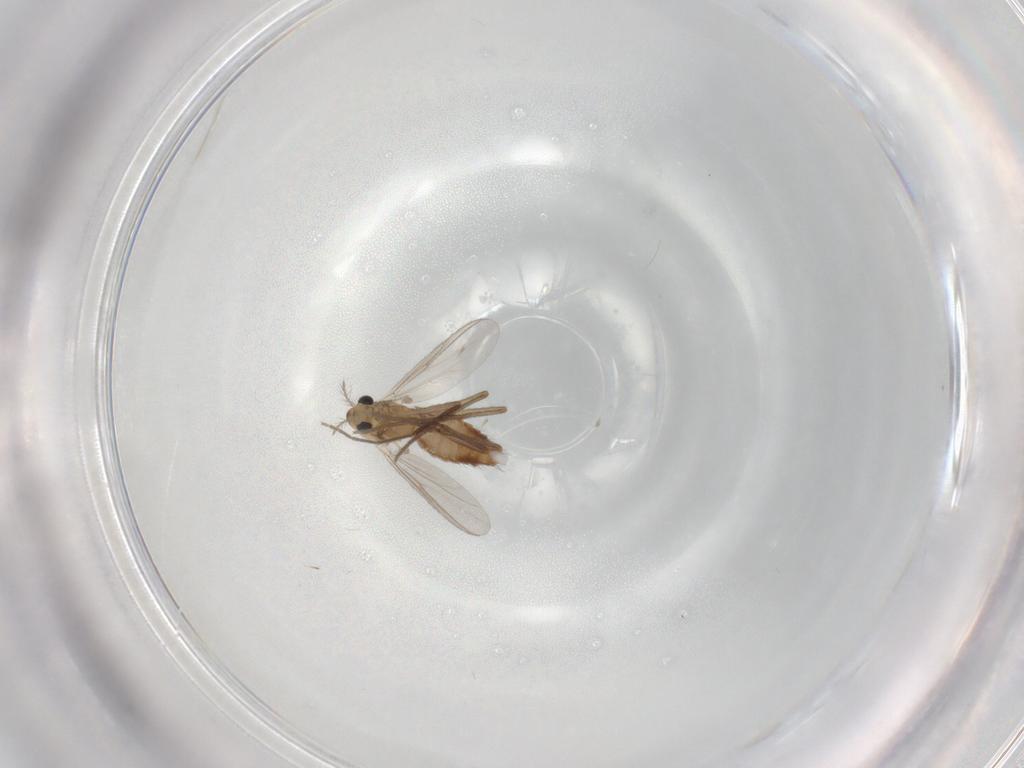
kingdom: Animalia
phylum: Arthropoda
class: Insecta
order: Diptera
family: Chironomidae
